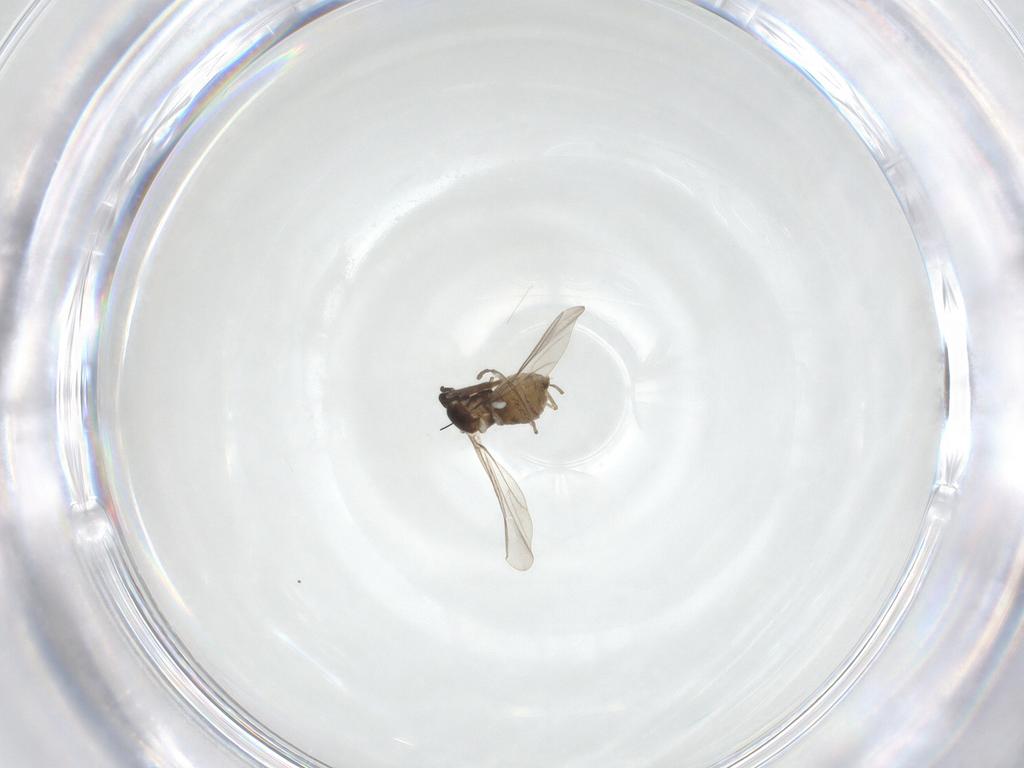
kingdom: Animalia
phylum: Arthropoda
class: Insecta
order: Diptera
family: Cecidomyiidae
